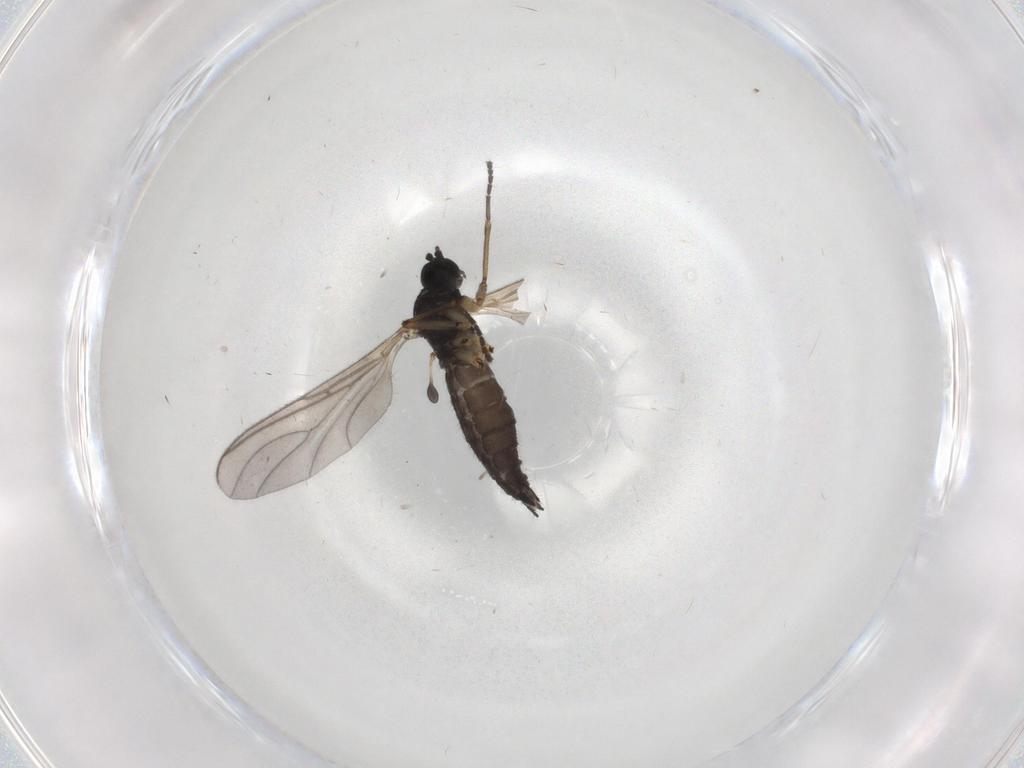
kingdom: Animalia
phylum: Arthropoda
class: Insecta
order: Diptera
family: Sciaridae
